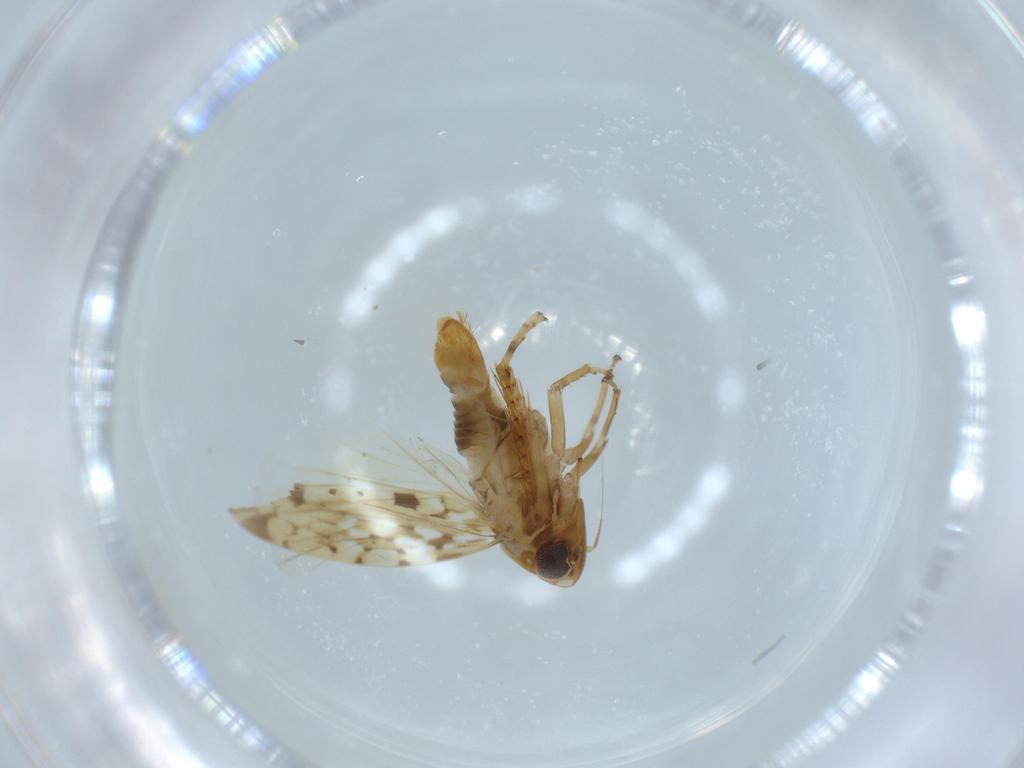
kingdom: Animalia
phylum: Arthropoda
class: Insecta
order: Hemiptera
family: Cicadellidae
